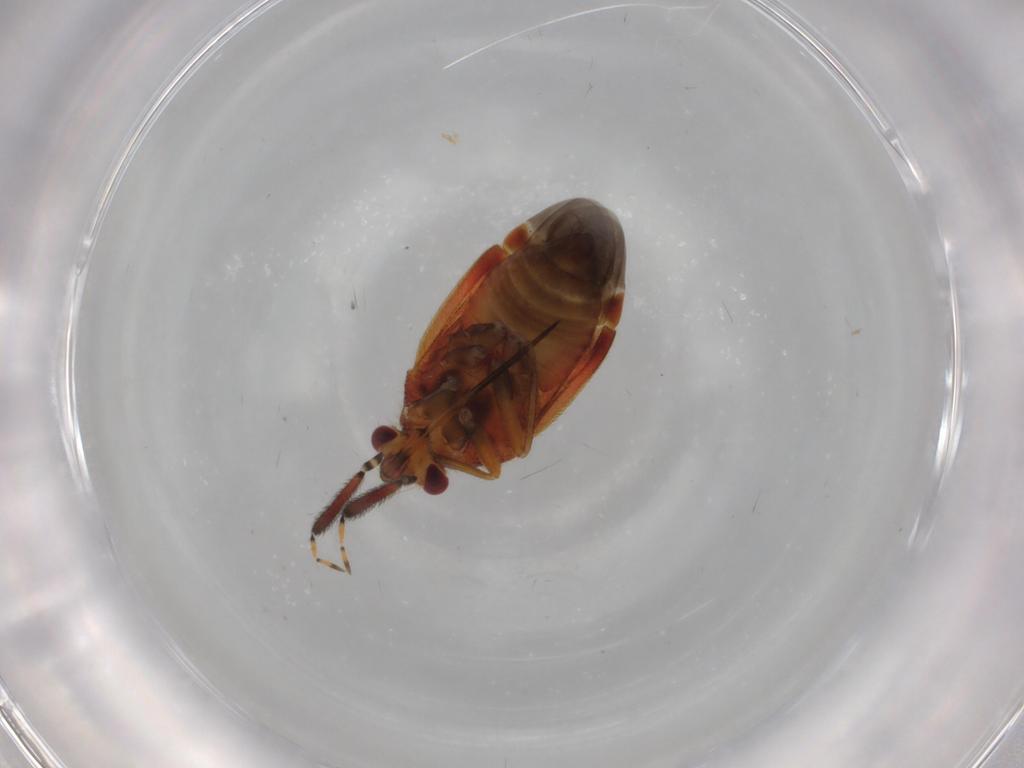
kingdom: Animalia
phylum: Arthropoda
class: Insecta
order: Hemiptera
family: Miridae
